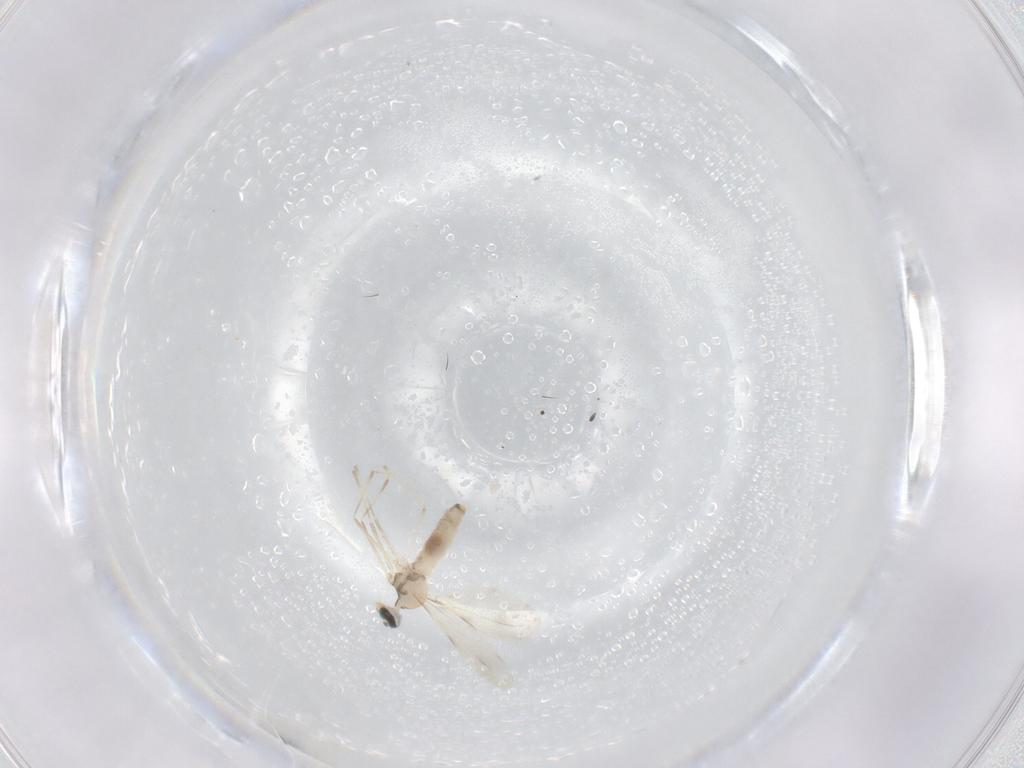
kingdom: Animalia
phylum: Arthropoda
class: Insecta
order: Diptera
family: Cecidomyiidae
